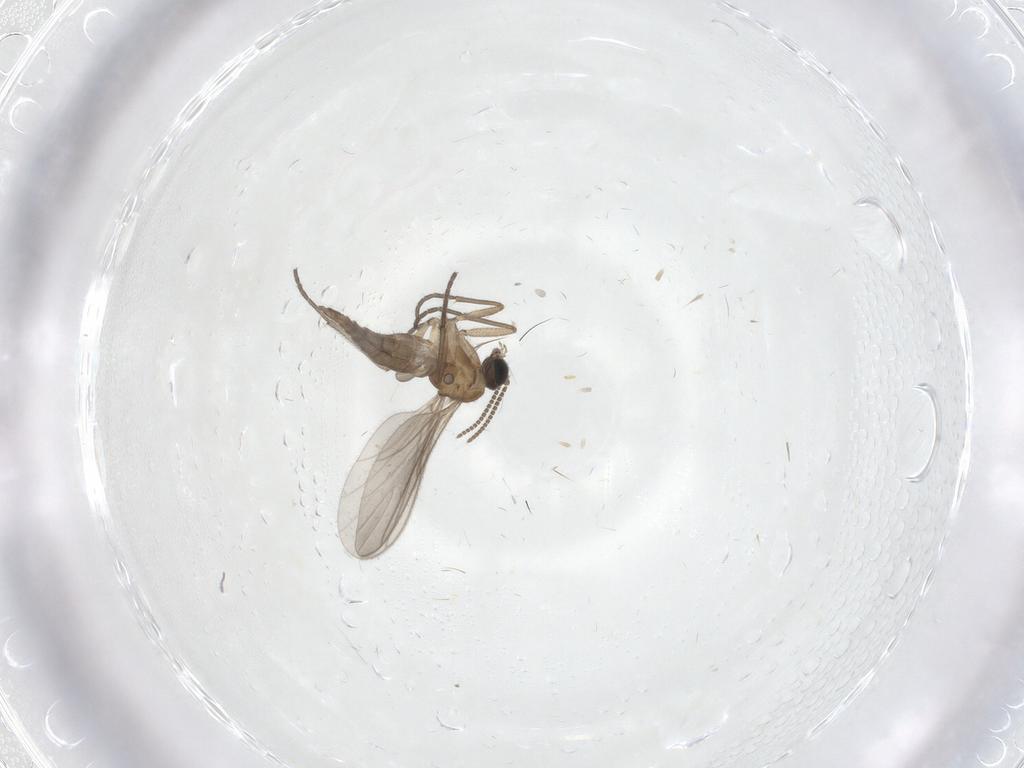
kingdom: Animalia
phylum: Arthropoda
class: Insecta
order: Diptera
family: Sciaridae
